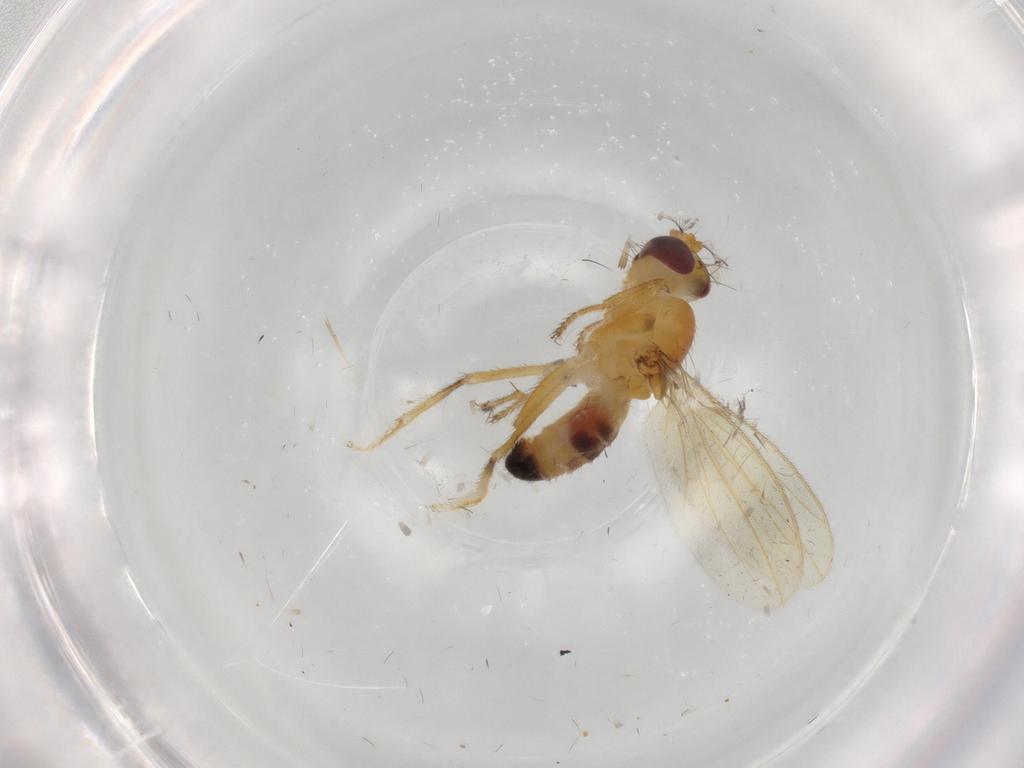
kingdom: Animalia
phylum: Arthropoda
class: Insecta
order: Diptera
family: Periscelididae
